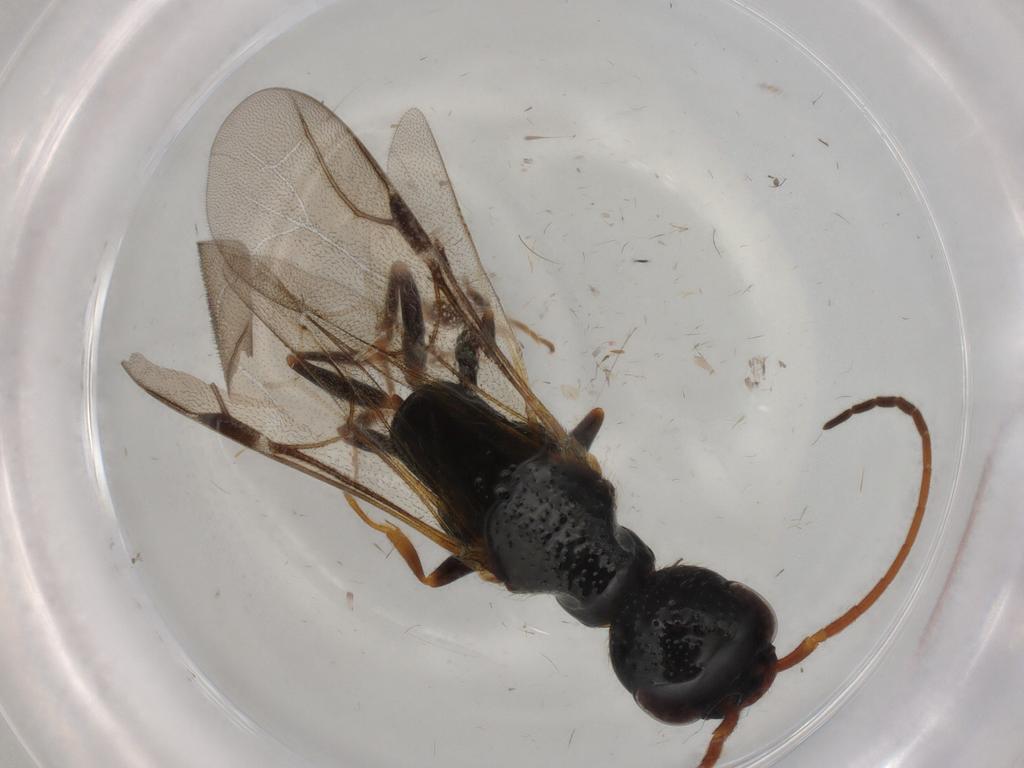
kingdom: Animalia
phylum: Arthropoda
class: Insecta
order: Hymenoptera
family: Bethylidae
